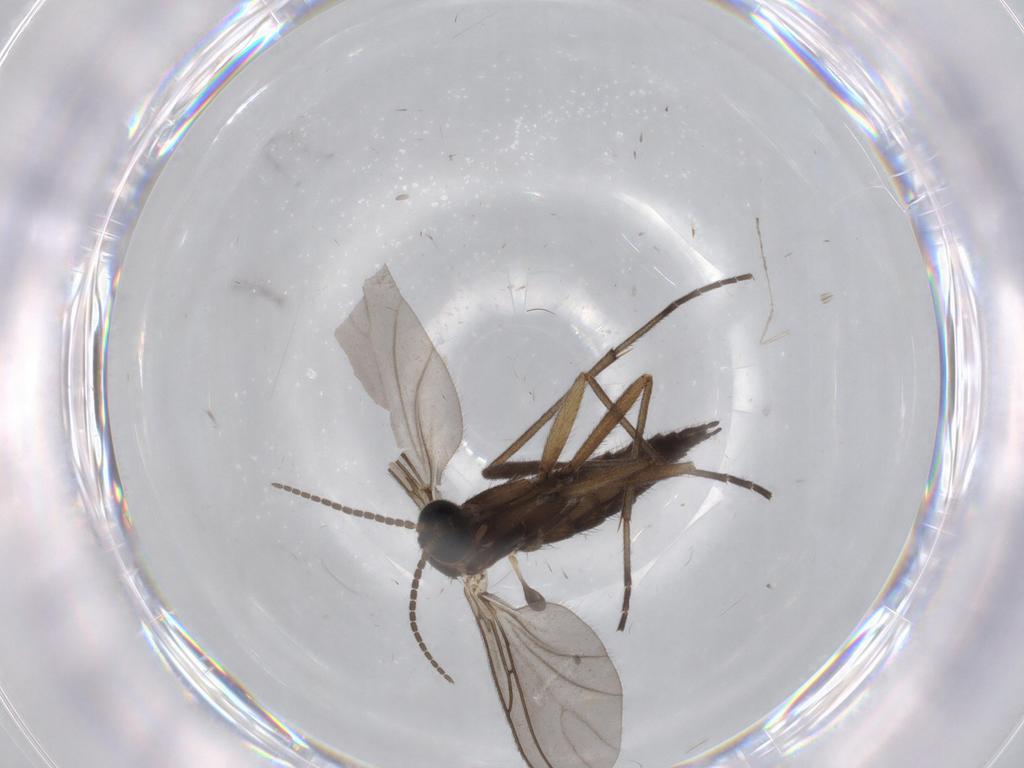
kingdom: Animalia
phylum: Arthropoda
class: Insecta
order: Diptera
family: Sciaridae
